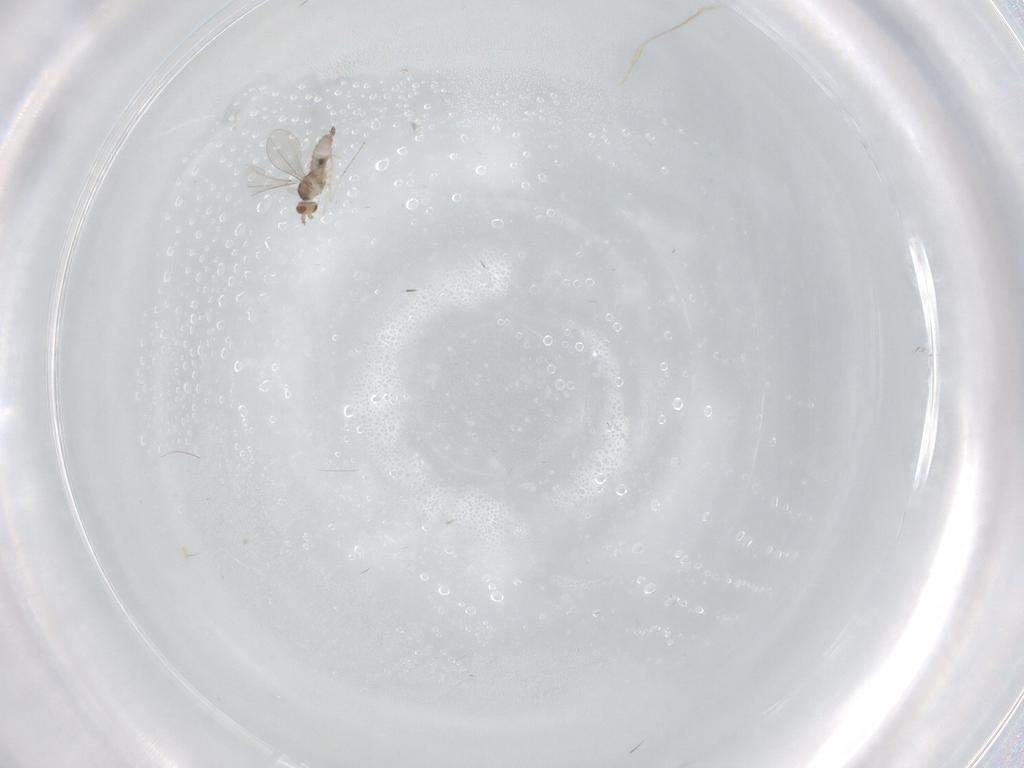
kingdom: Animalia
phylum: Arthropoda
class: Insecta
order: Diptera
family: Cecidomyiidae
